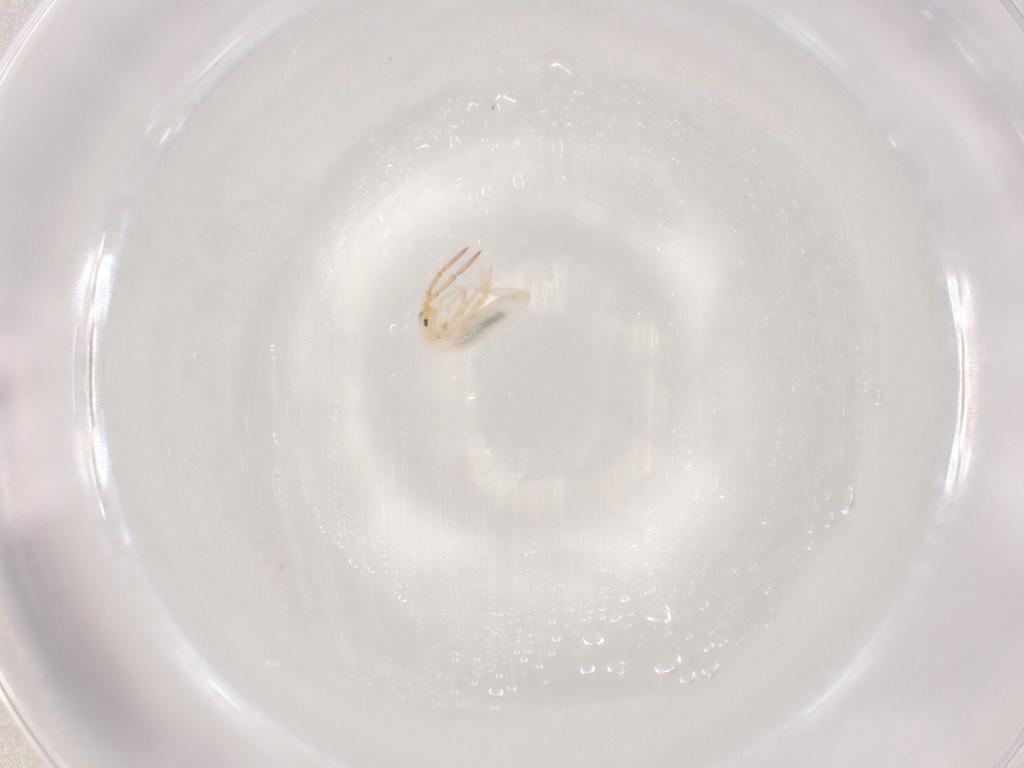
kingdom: Animalia
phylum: Arthropoda
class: Collembola
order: Entomobryomorpha
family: Entomobryidae
